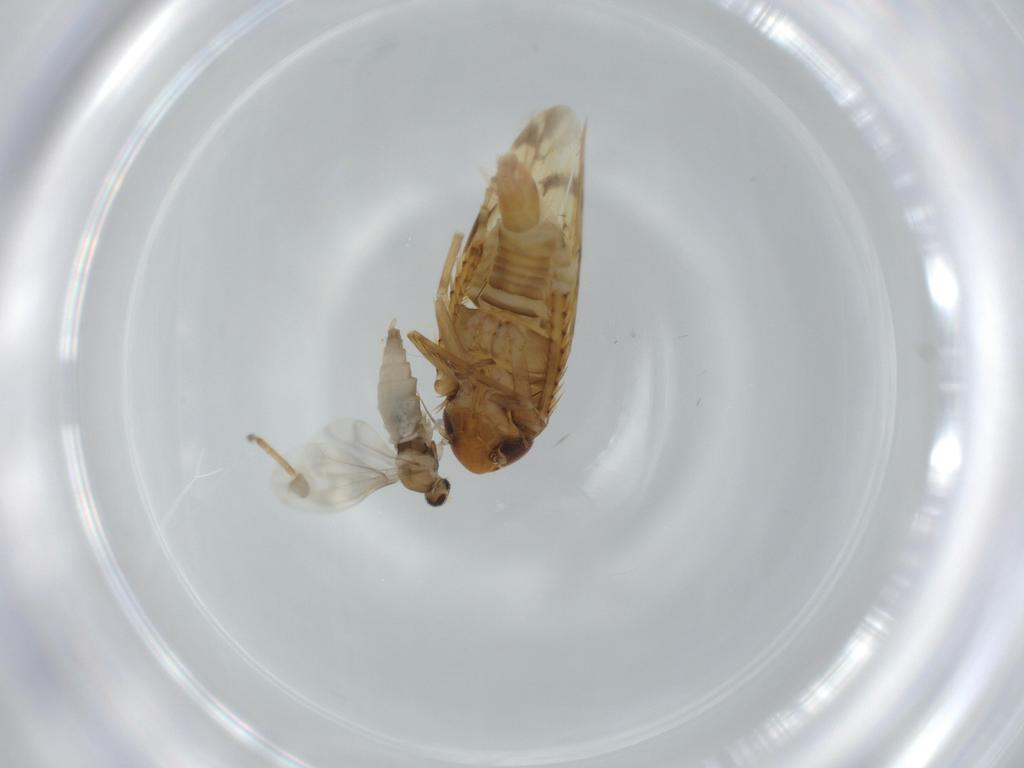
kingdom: Animalia
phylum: Arthropoda
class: Insecta
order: Hemiptera
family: Cicadellidae
